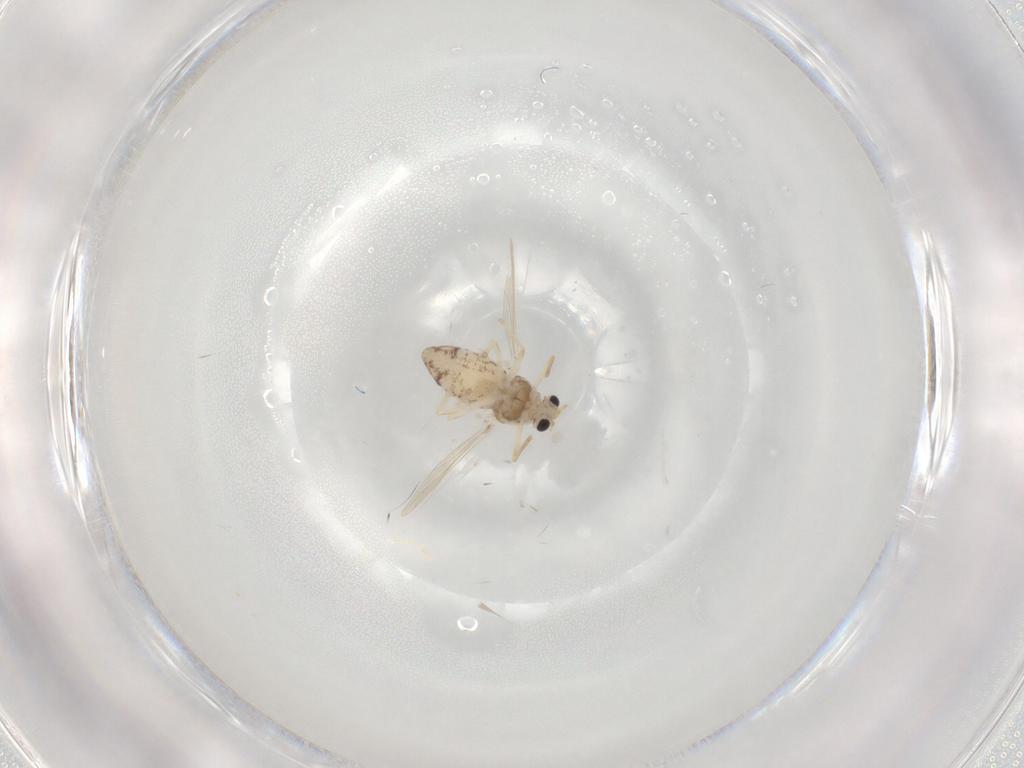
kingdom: Animalia
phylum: Arthropoda
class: Insecta
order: Diptera
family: Chironomidae
